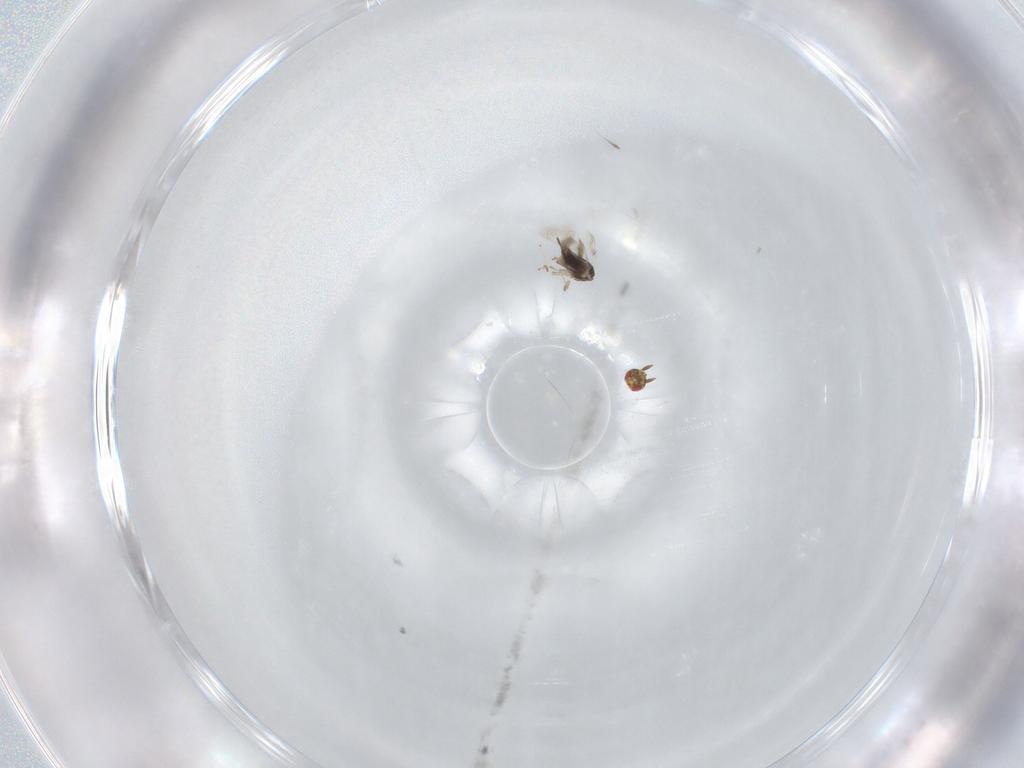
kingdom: Animalia
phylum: Arthropoda
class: Insecta
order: Hymenoptera
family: Azotidae
